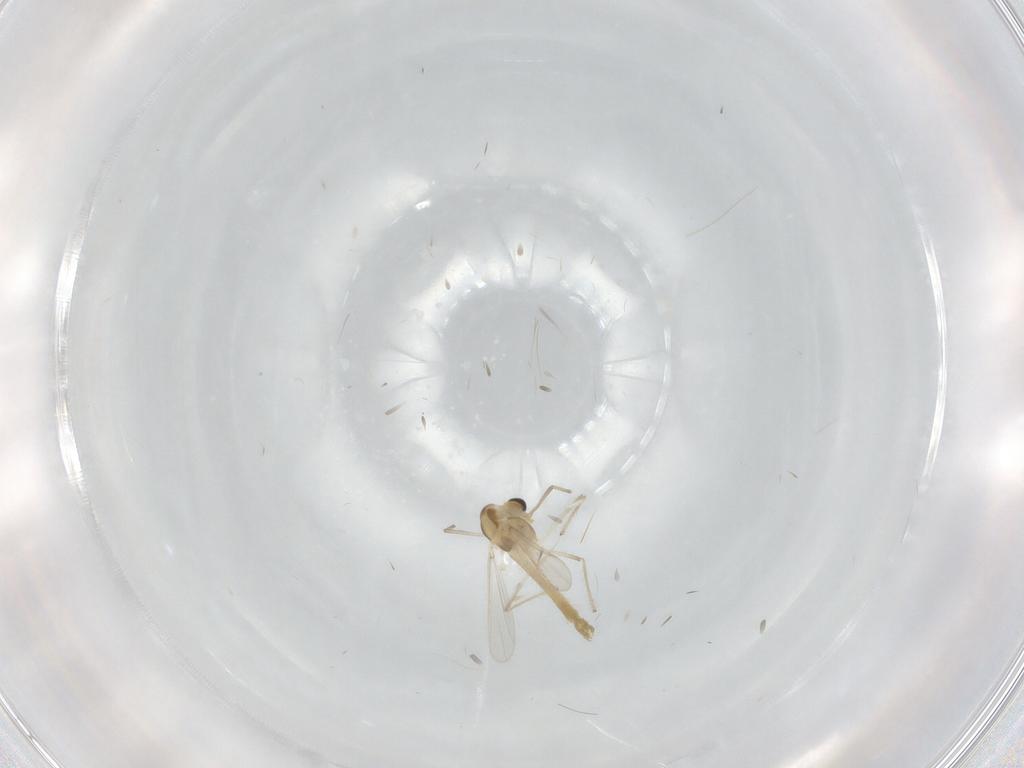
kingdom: Animalia
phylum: Arthropoda
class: Insecta
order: Diptera
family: Chironomidae
